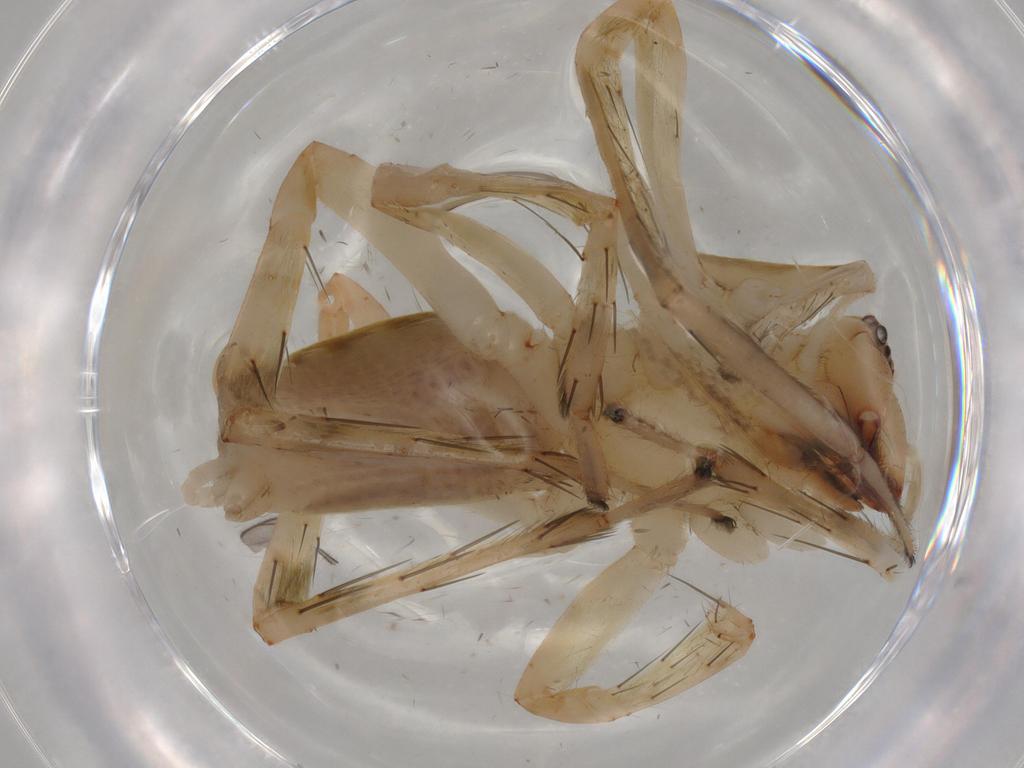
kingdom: Animalia
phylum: Arthropoda
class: Arachnida
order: Araneae
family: Anyphaenidae
